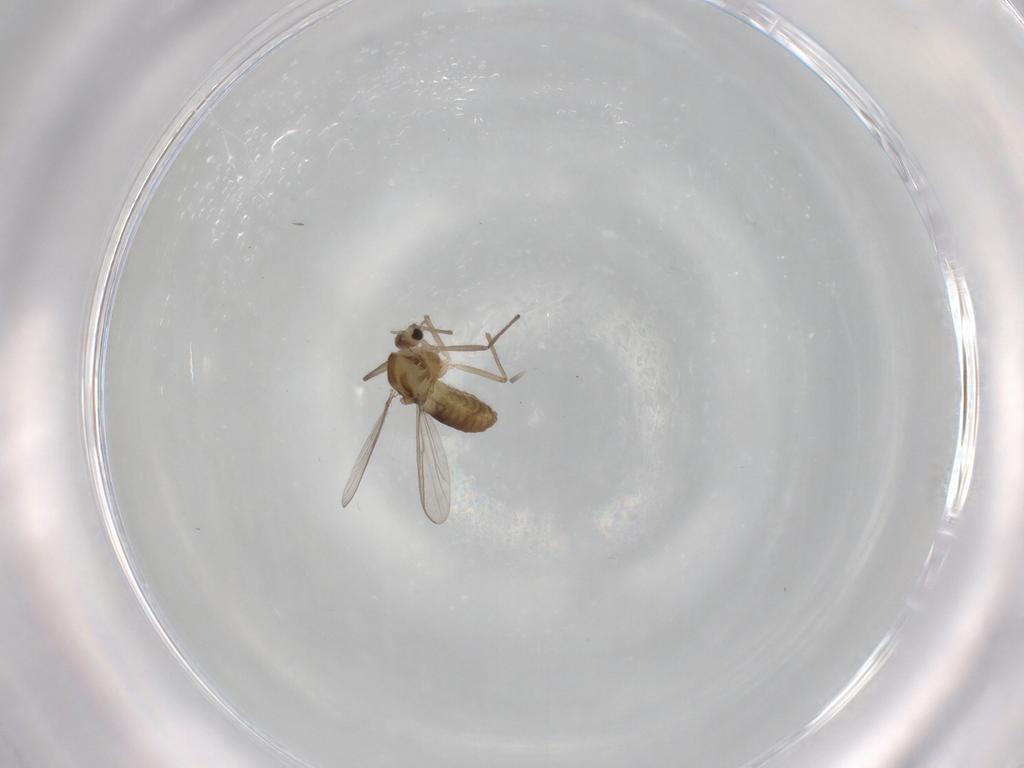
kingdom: Animalia
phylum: Arthropoda
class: Insecta
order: Diptera
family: Chironomidae
